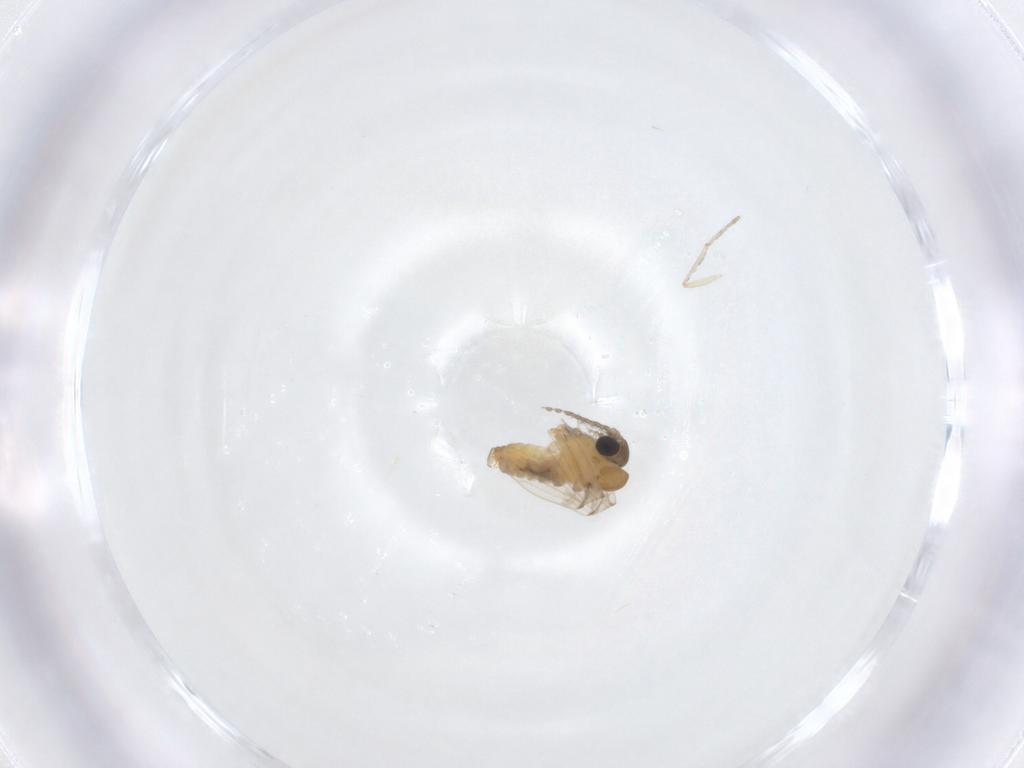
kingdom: Animalia
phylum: Arthropoda
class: Insecta
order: Diptera
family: Psychodidae
